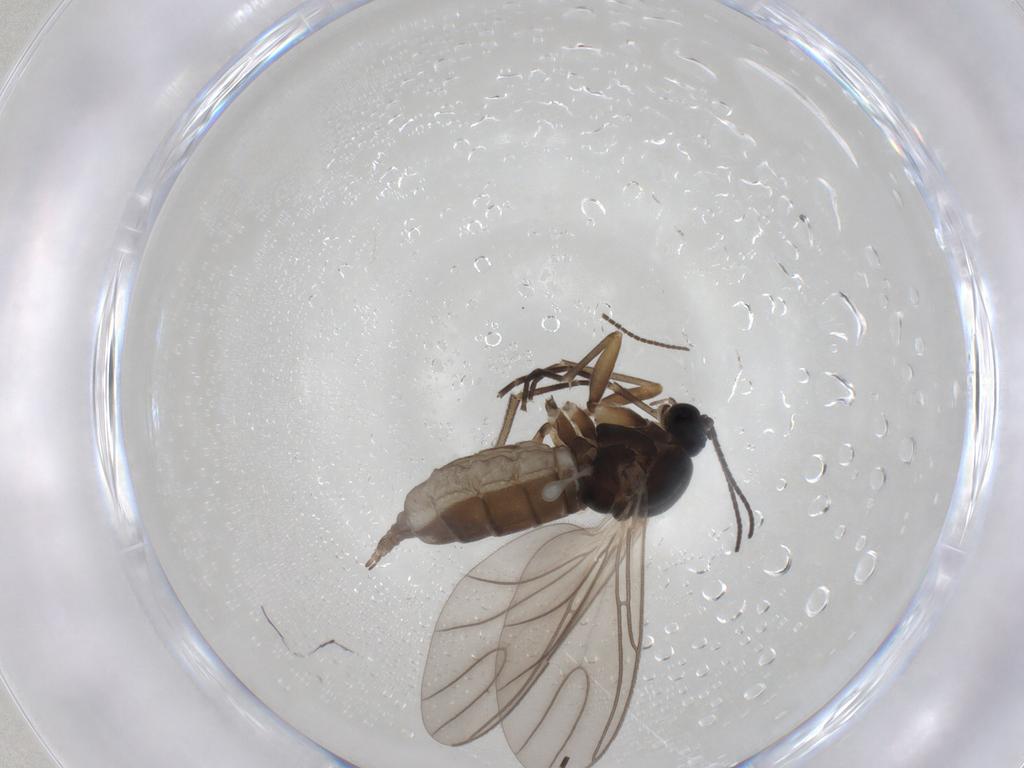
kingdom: Animalia
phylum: Arthropoda
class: Insecta
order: Diptera
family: Sciaridae
